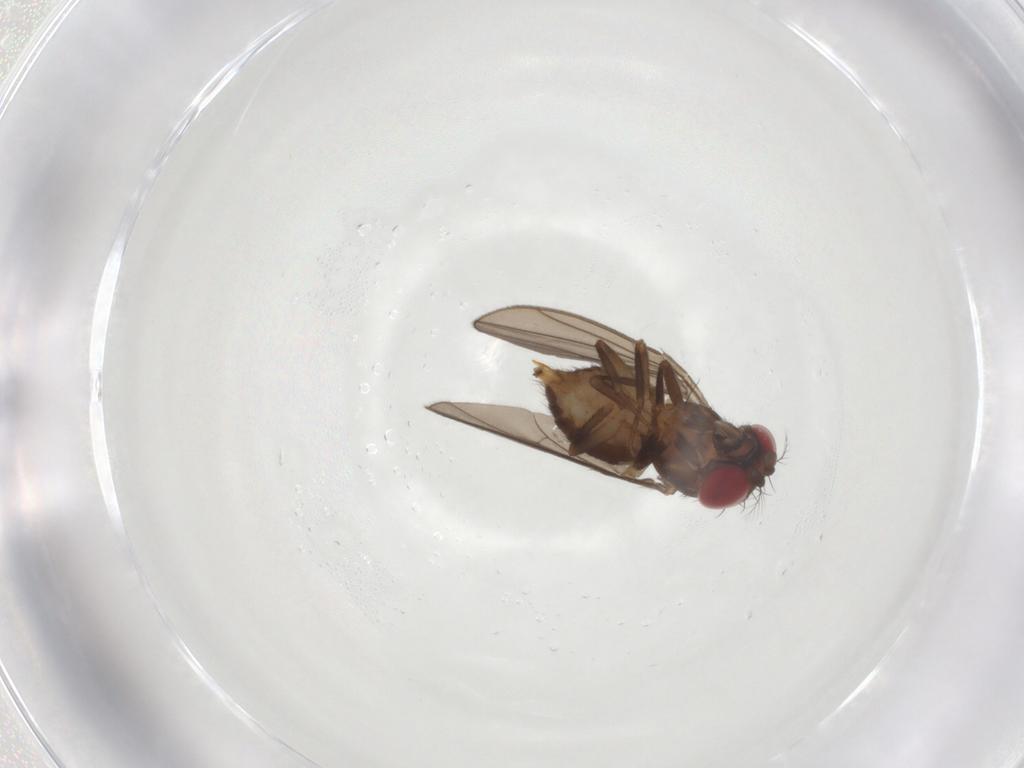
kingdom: Animalia
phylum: Arthropoda
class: Insecta
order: Diptera
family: Drosophilidae
